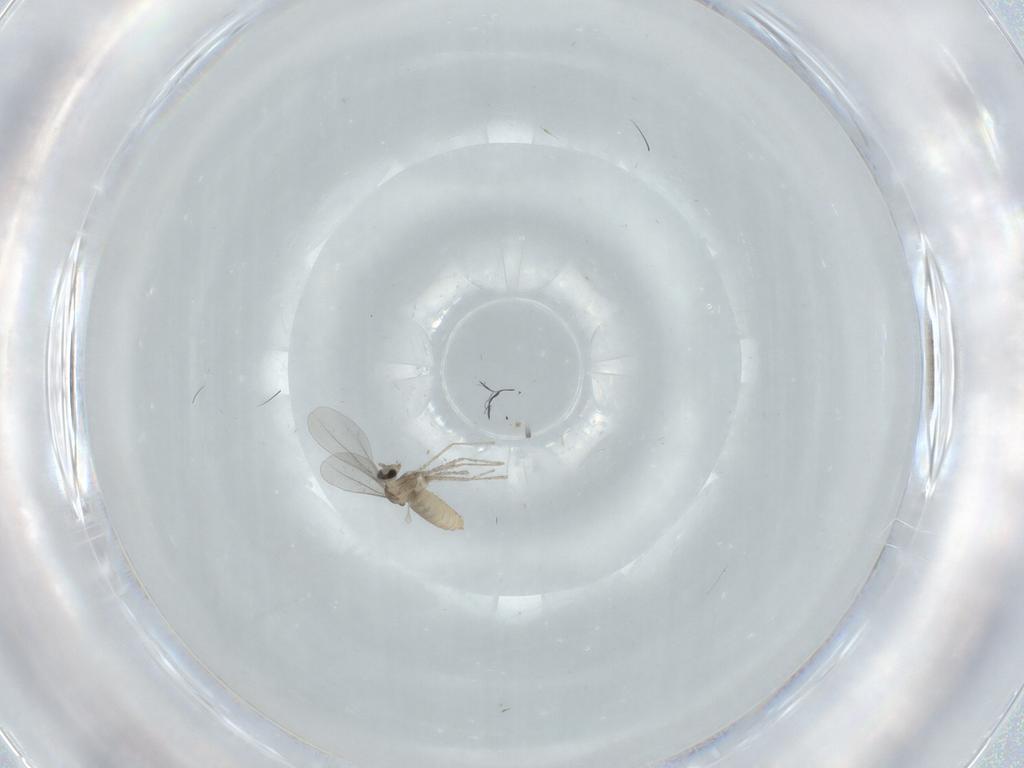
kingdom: Animalia
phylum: Arthropoda
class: Insecta
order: Diptera
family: Cecidomyiidae
